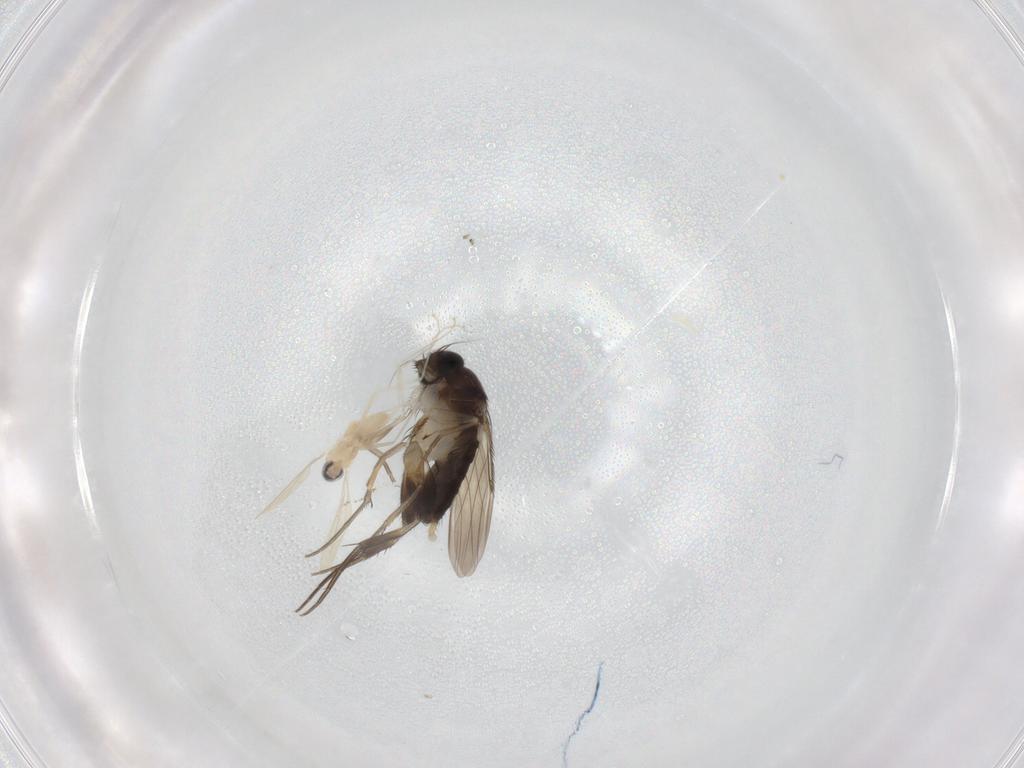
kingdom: Animalia
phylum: Arthropoda
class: Insecta
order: Diptera
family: Phoridae
